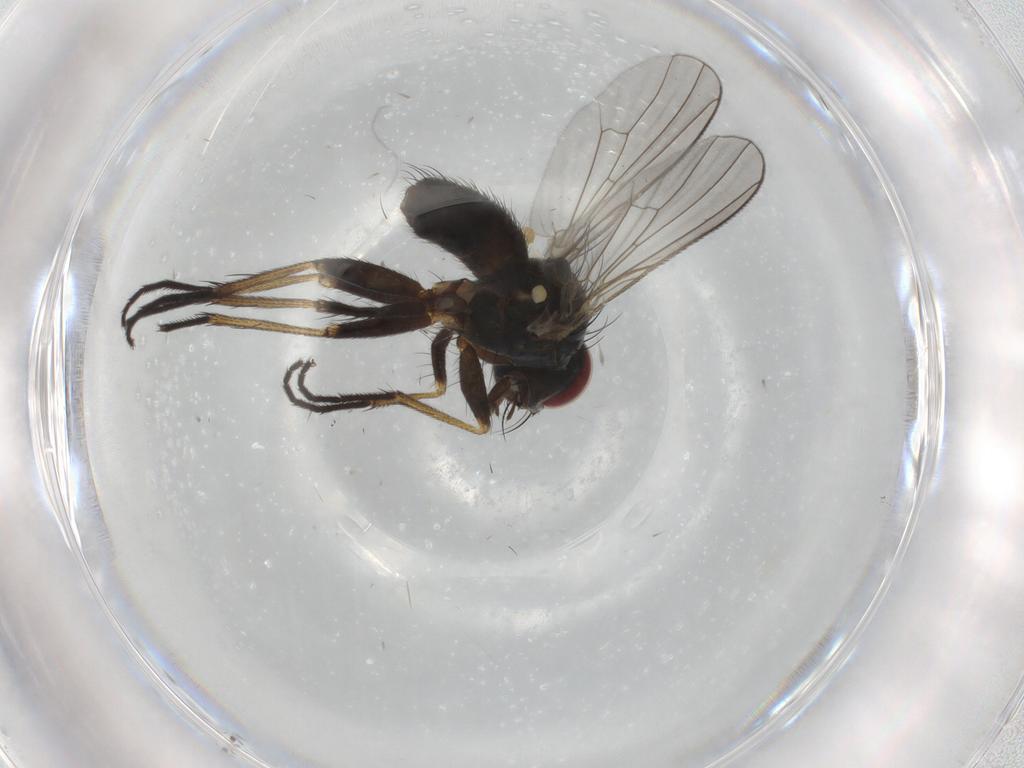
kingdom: Animalia
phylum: Arthropoda
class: Insecta
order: Diptera
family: Muscidae
